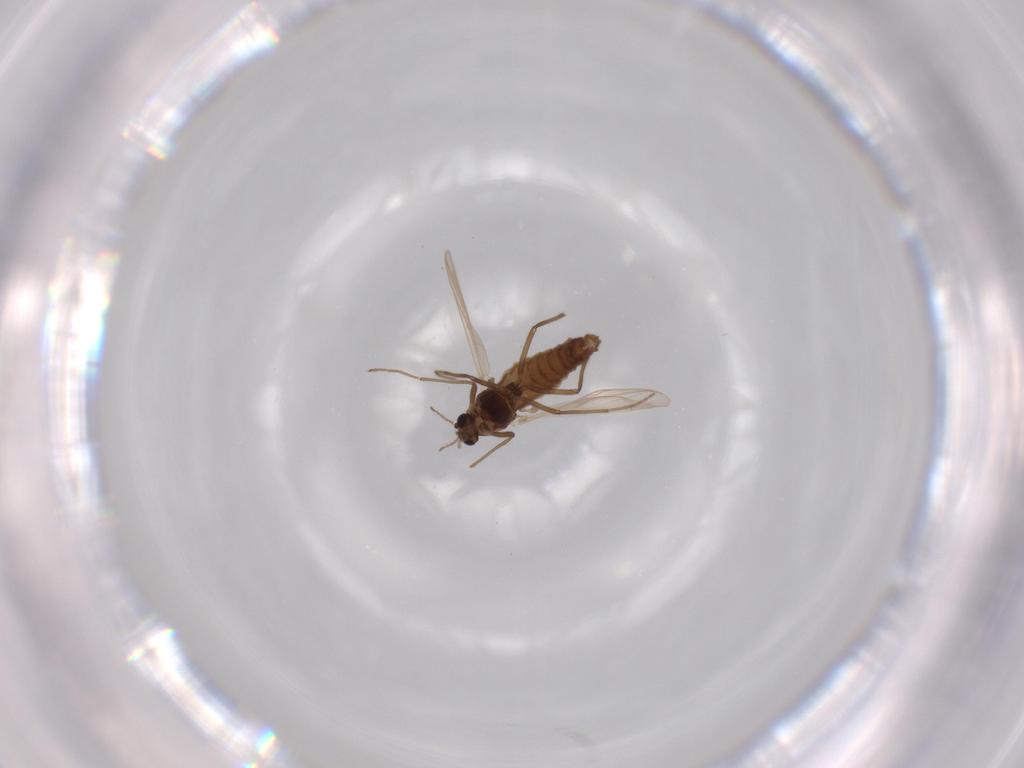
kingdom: Animalia
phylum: Arthropoda
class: Insecta
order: Diptera
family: Chironomidae
